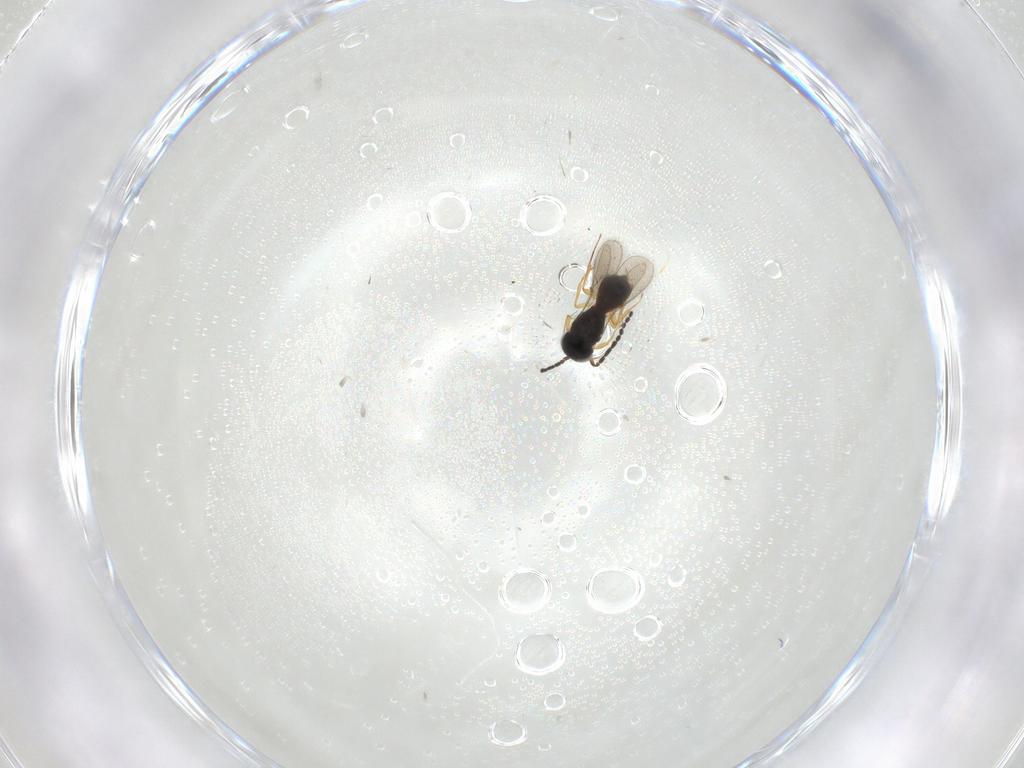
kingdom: Animalia
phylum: Arthropoda
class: Insecta
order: Hymenoptera
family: Scelionidae
